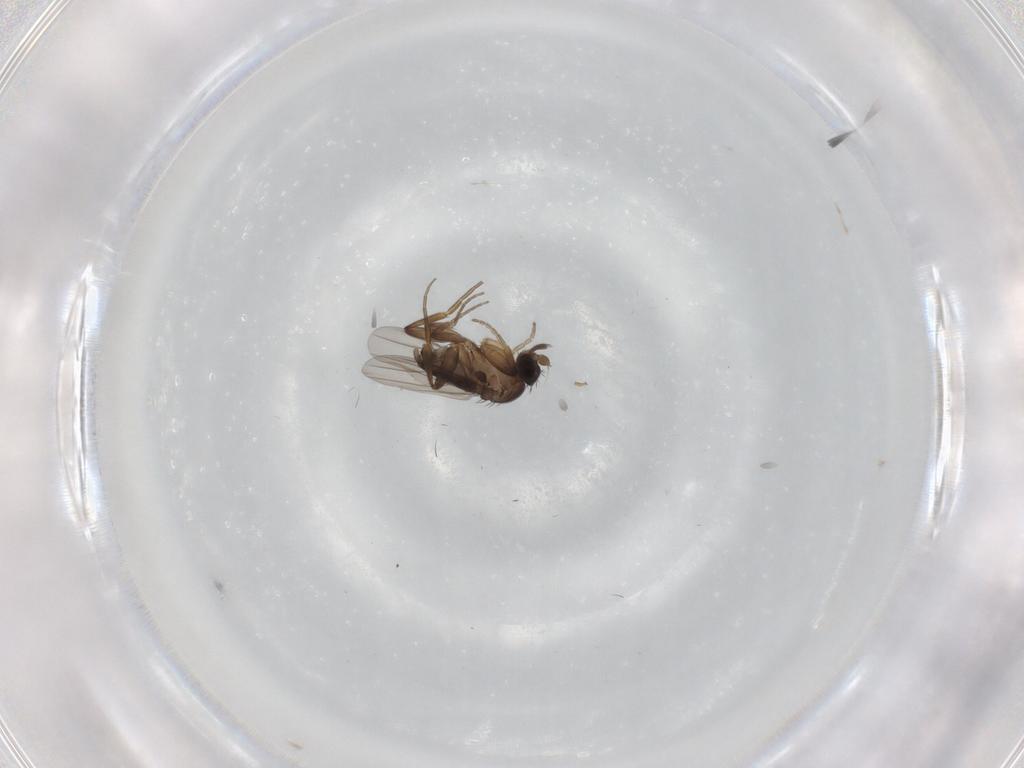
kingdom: Animalia
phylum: Arthropoda
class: Insecta
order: Diptera
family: Phoridae
